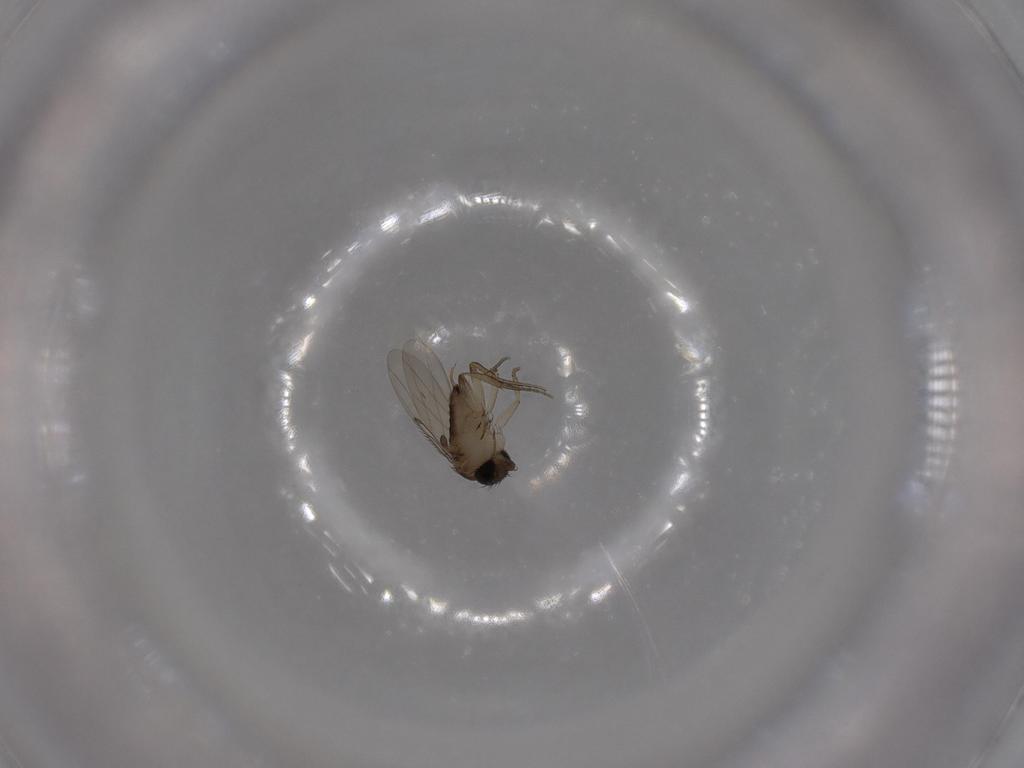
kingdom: Animalia
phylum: Arthropoda
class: Insecta
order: Diptera
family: Phoridae
